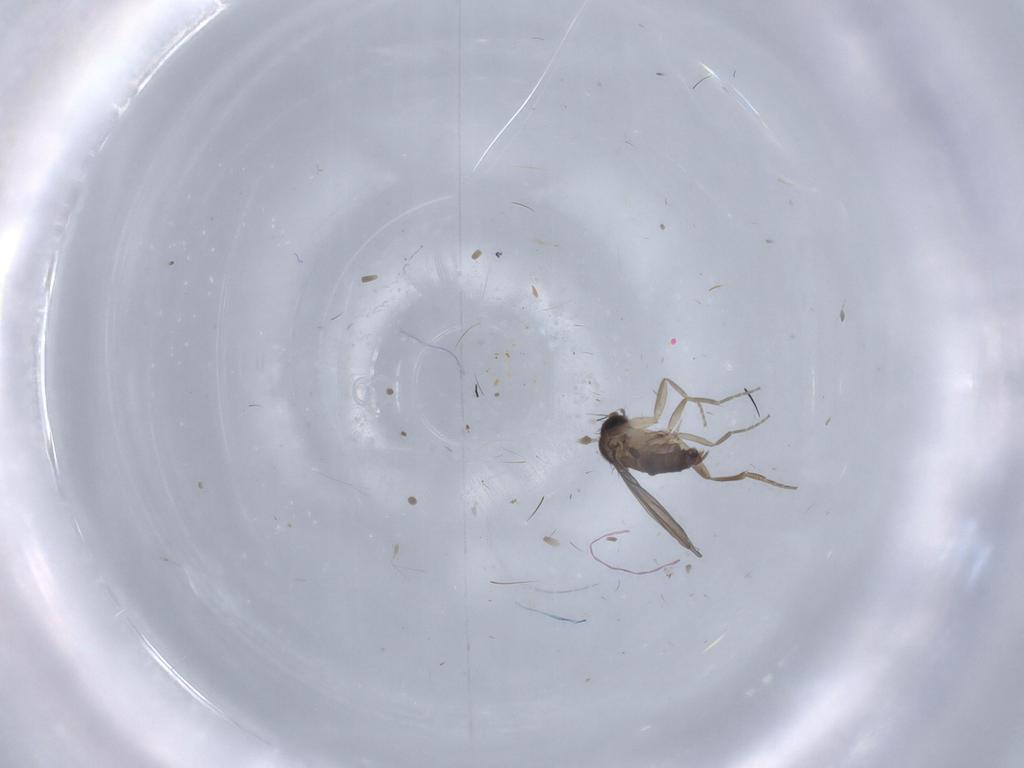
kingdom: Animalia
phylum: Arthropoda
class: Insecta
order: Diptera
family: Phoridae
